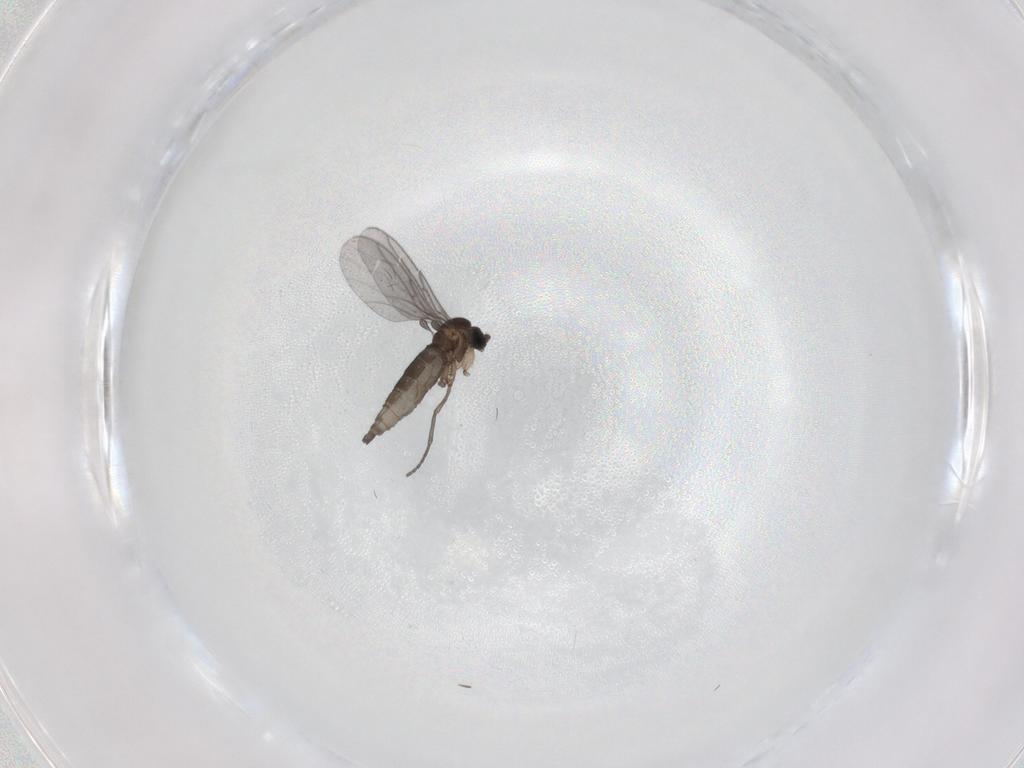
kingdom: Animalia
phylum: Arthropoda
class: Insecta
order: Diptera
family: Sciaridae
